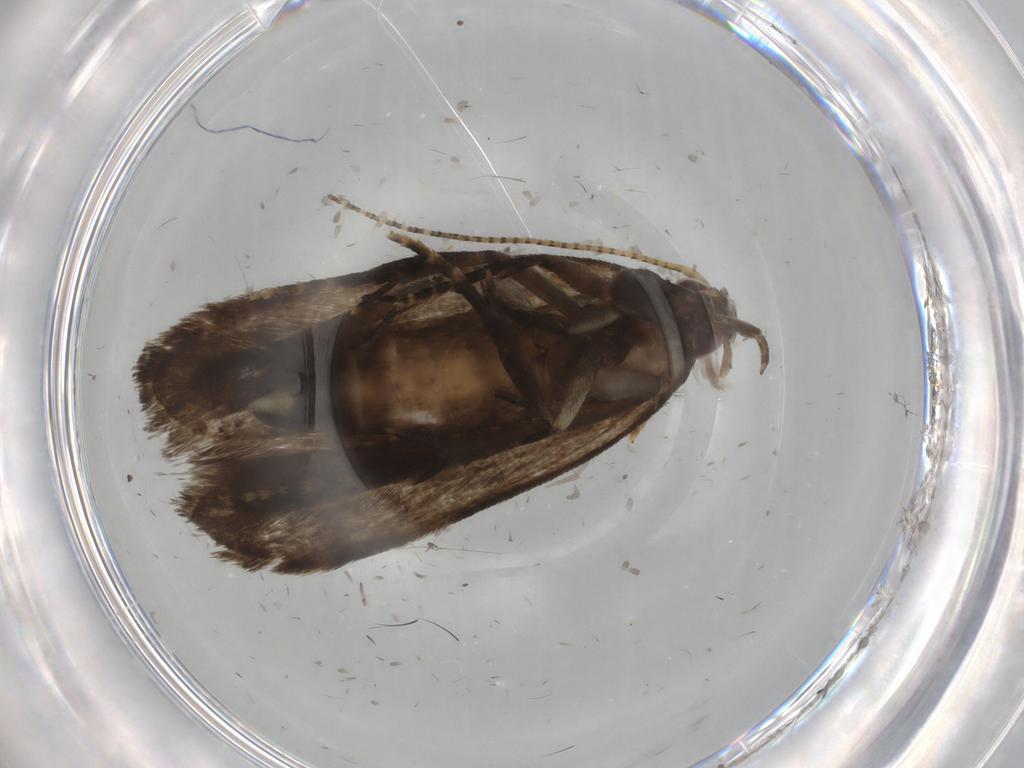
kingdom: Animalia
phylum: Arthropoda
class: Insecta
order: Lepidoptera
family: Gelechiidae
